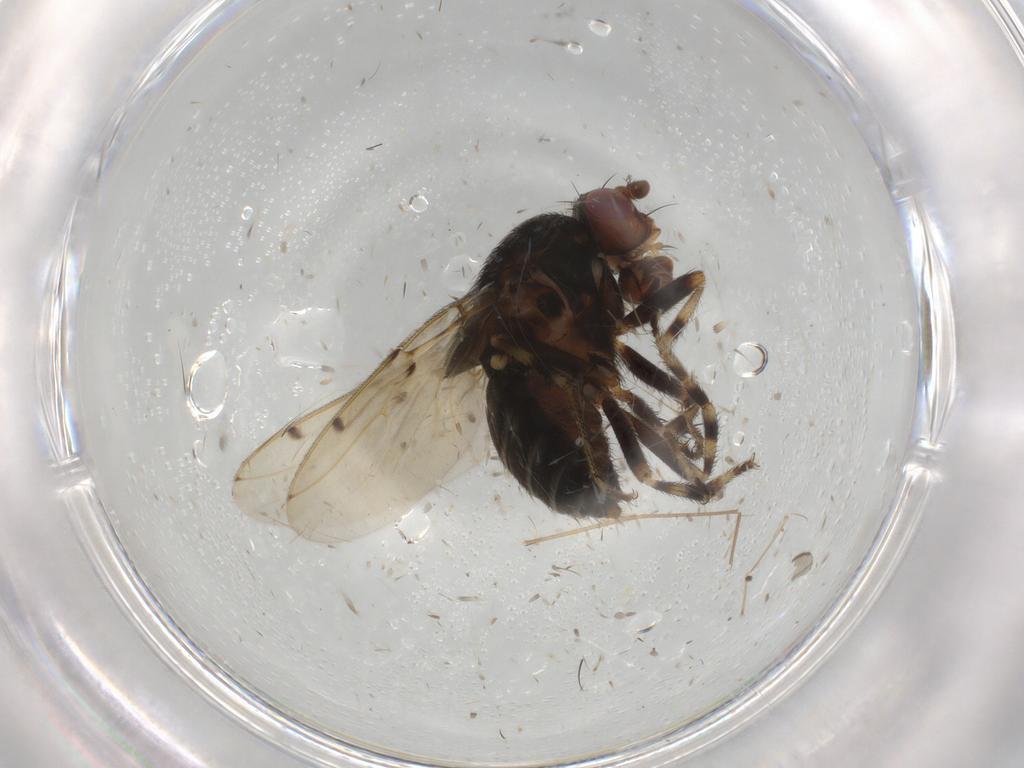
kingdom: Animalia
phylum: Arthropoda
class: Insecta
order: Diptera
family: Sphaeroceridae
